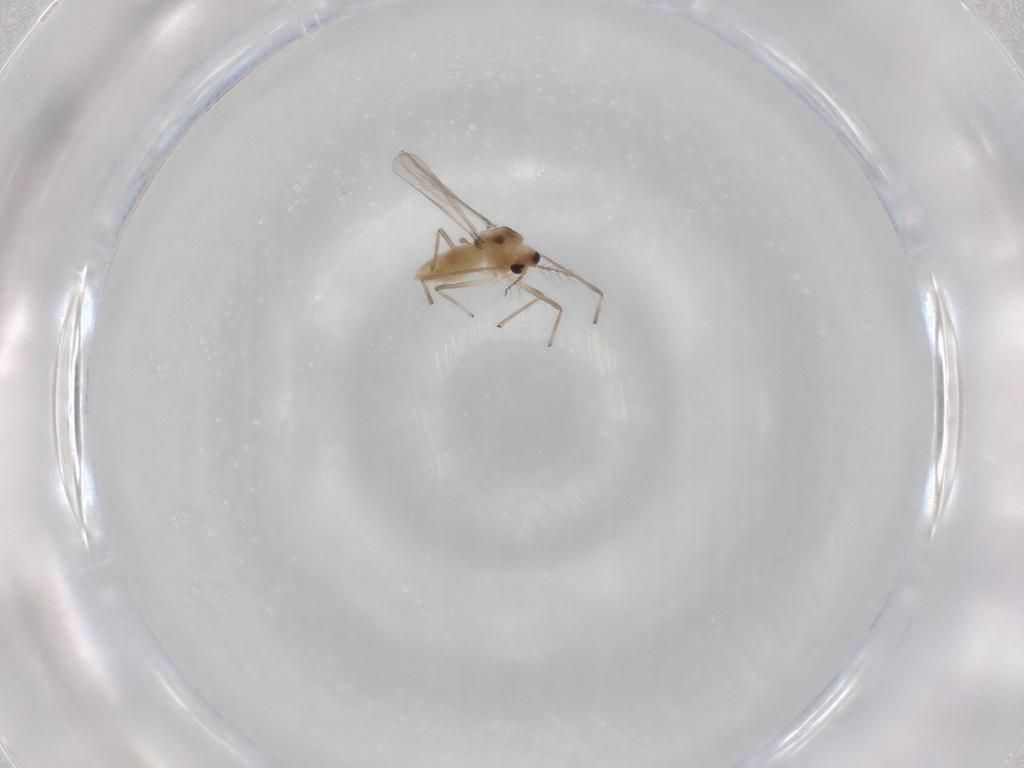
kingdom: Animalia
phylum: Arthropoda
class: Insecta
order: Diptera
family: Chironomidae
